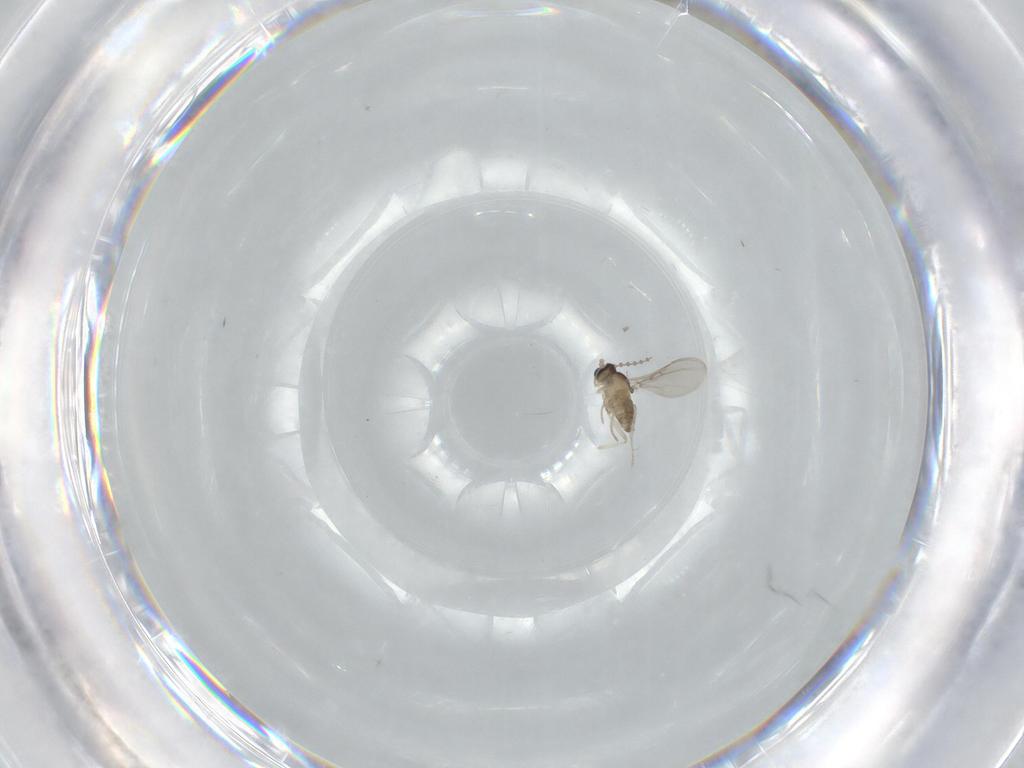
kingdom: Animalia
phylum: Arthropoda
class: Insecta
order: Diptera
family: Cecidomyiidae
